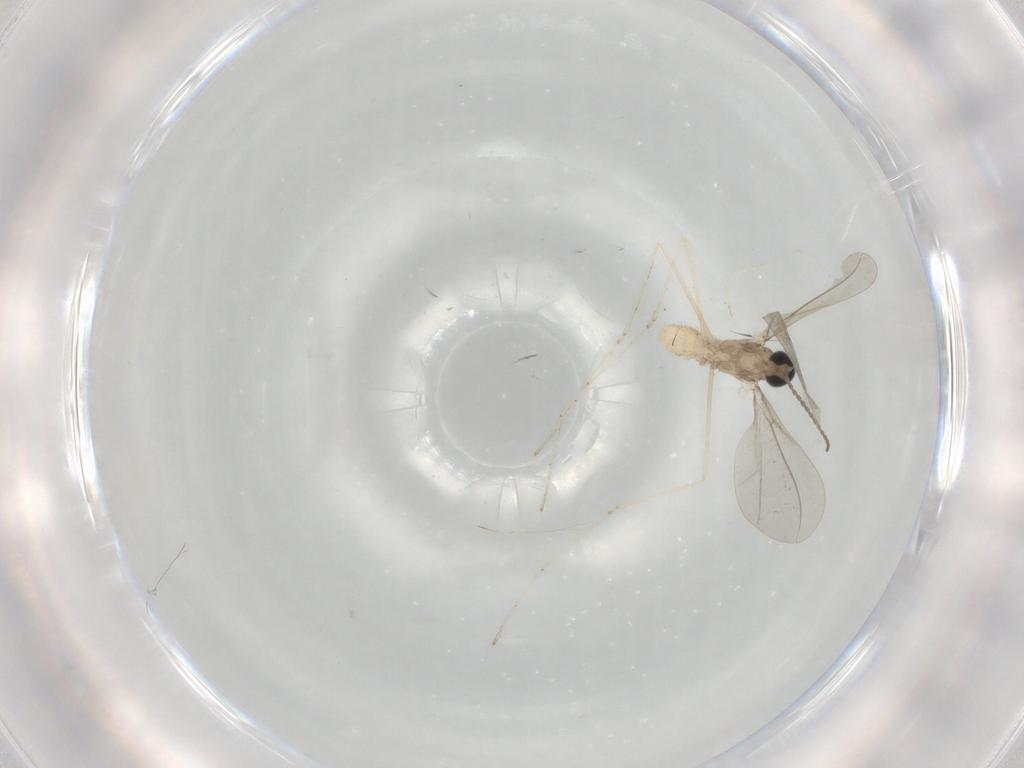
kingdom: Animalia
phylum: Arthropoda
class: Insecta
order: Diptera
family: Cecidomyiidae
